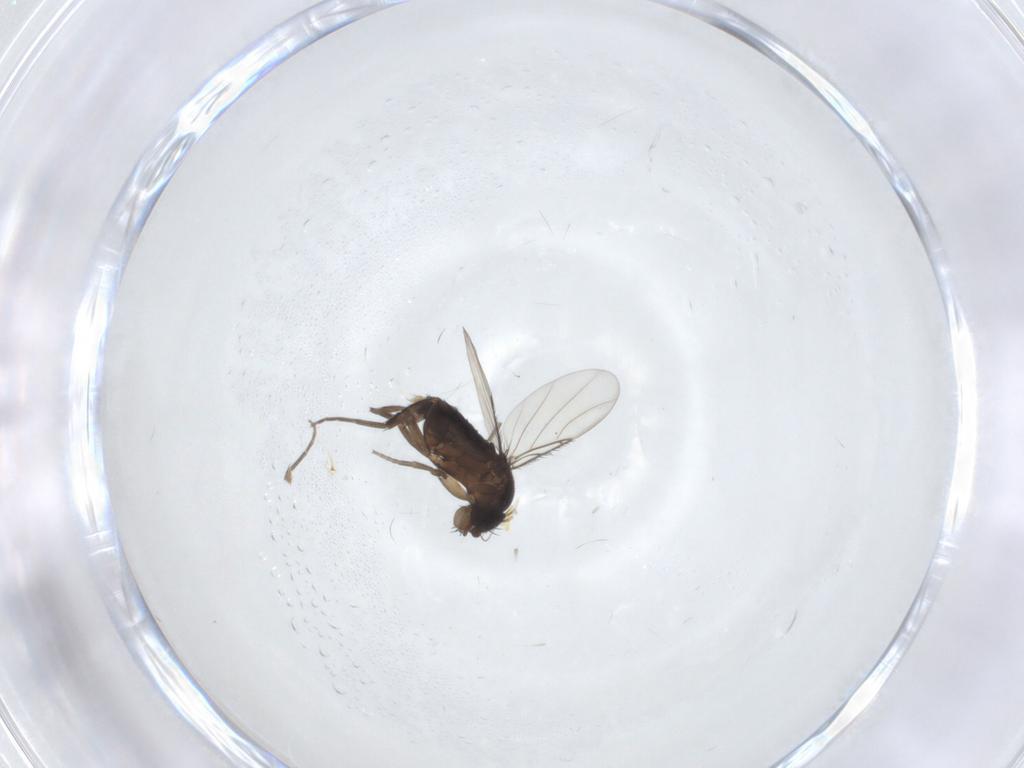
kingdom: Animalia
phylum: Arthropoda
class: Insecta
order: Diptera
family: Phoridae
